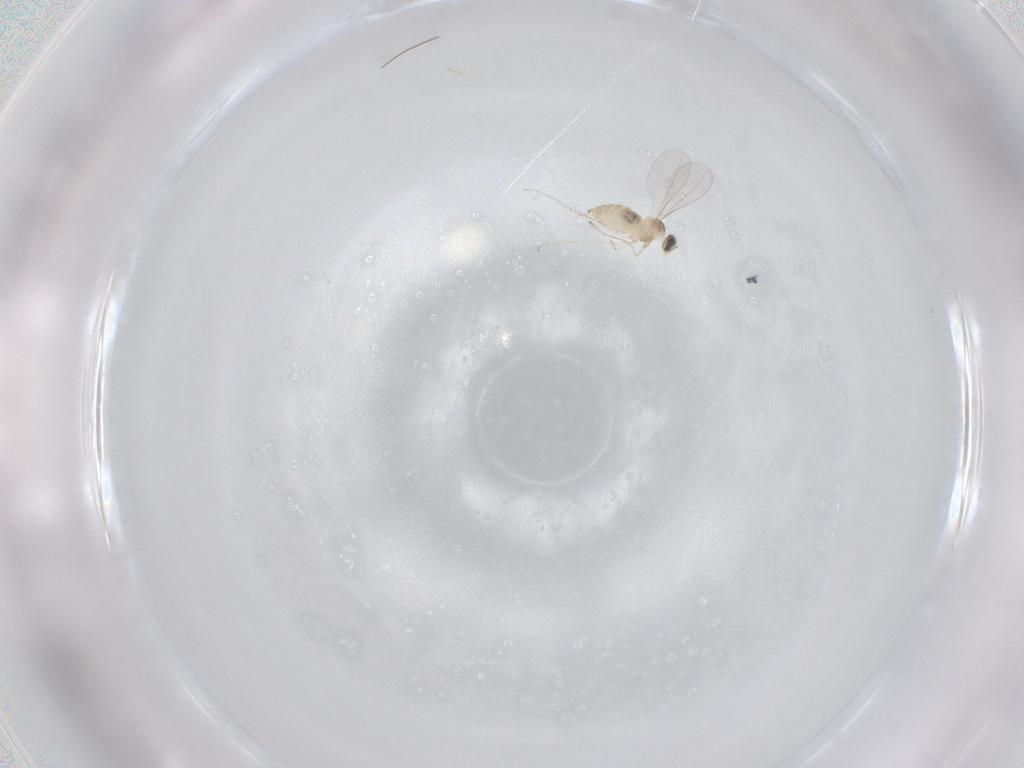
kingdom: Animalia
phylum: Arthropoda
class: Insecta
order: Diptera
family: Cecidomyiidae
